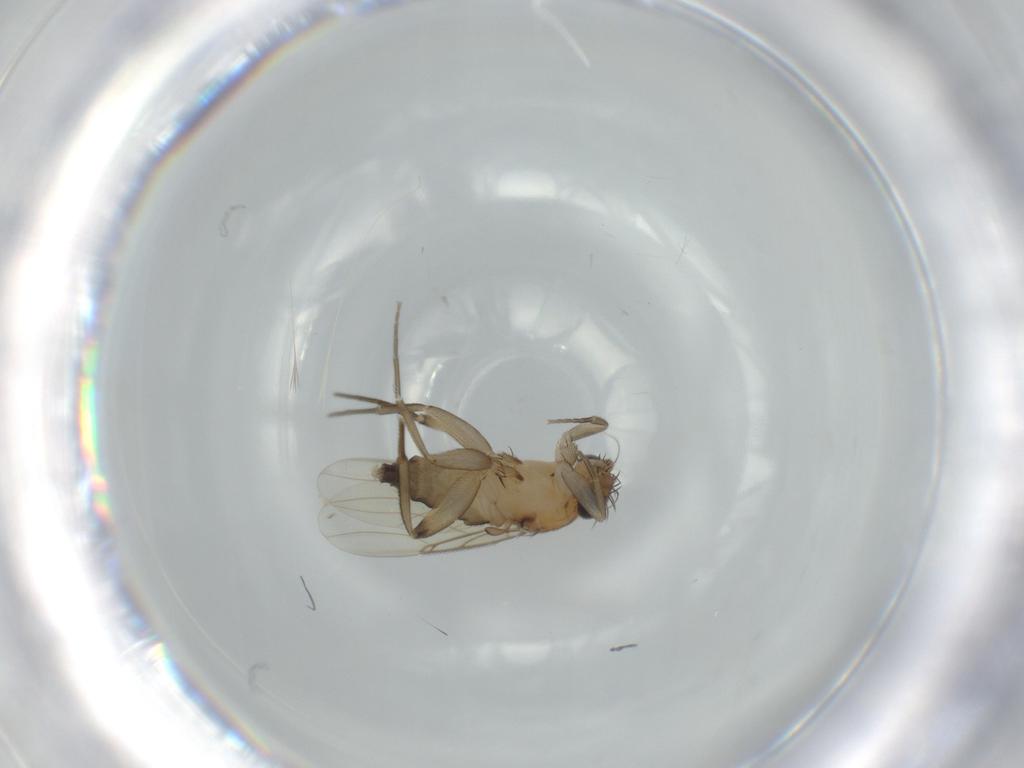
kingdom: Animalia
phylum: Arthropoda
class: Insecta
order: Diptera
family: Phoridae
